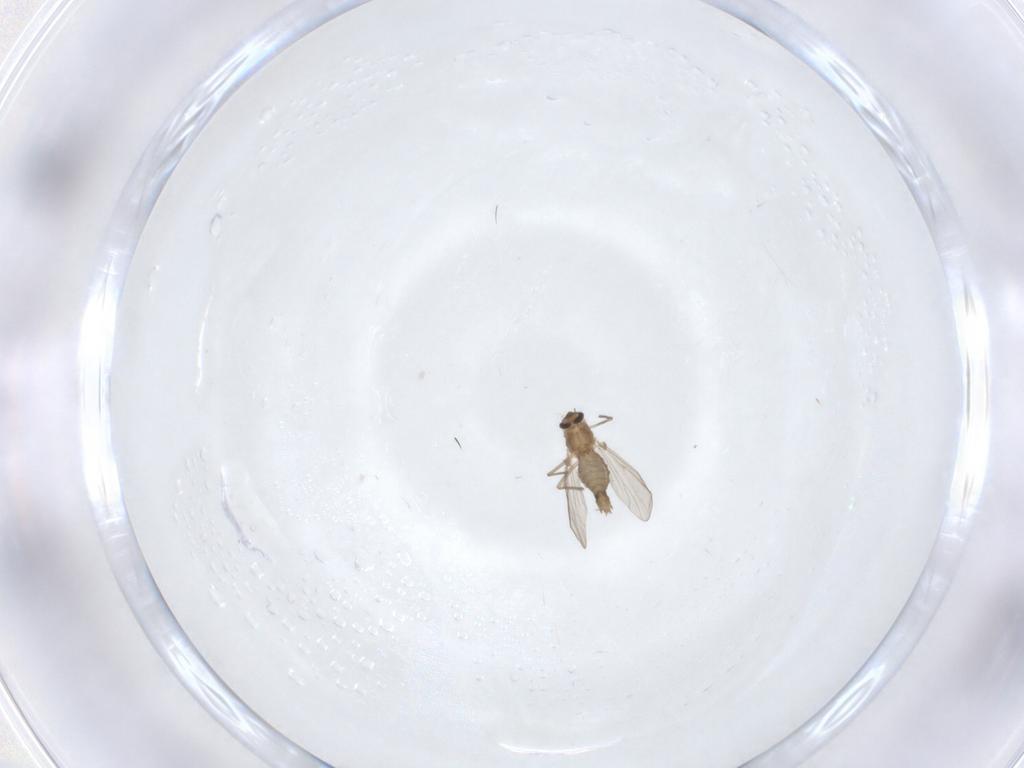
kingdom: Animalia
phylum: Arthropoda
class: Insecta
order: Diptera
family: Chironomidae
